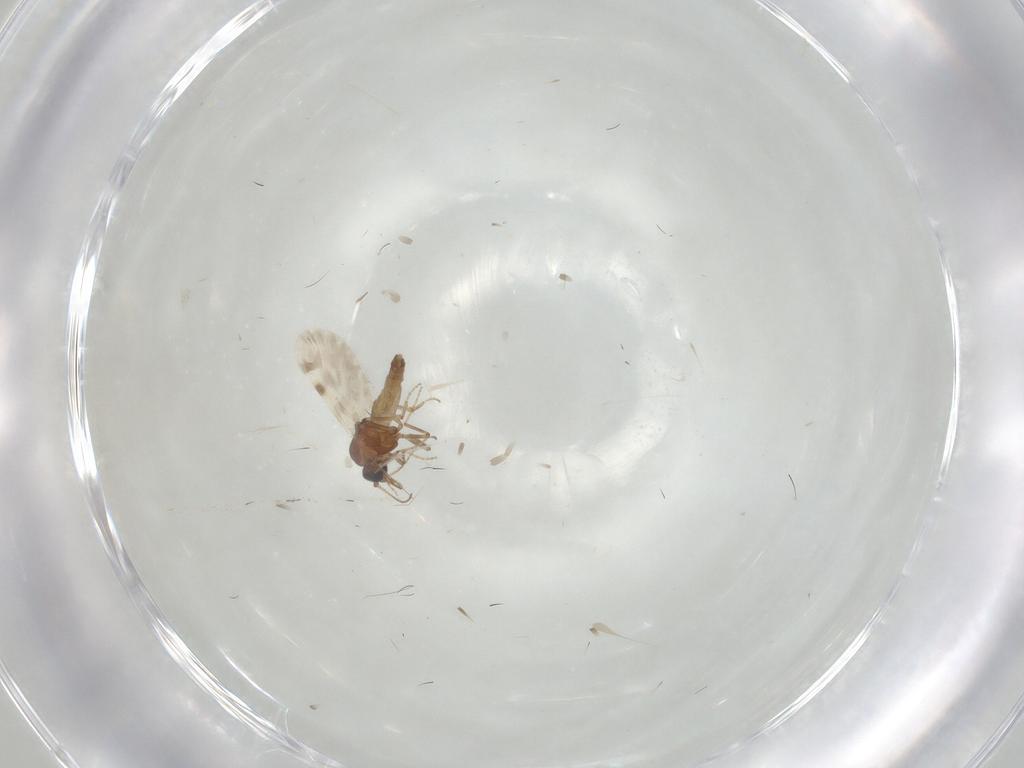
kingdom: Animalia
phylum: Arthropoda
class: Insecta
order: Diptera
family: Ceratopogonidae
